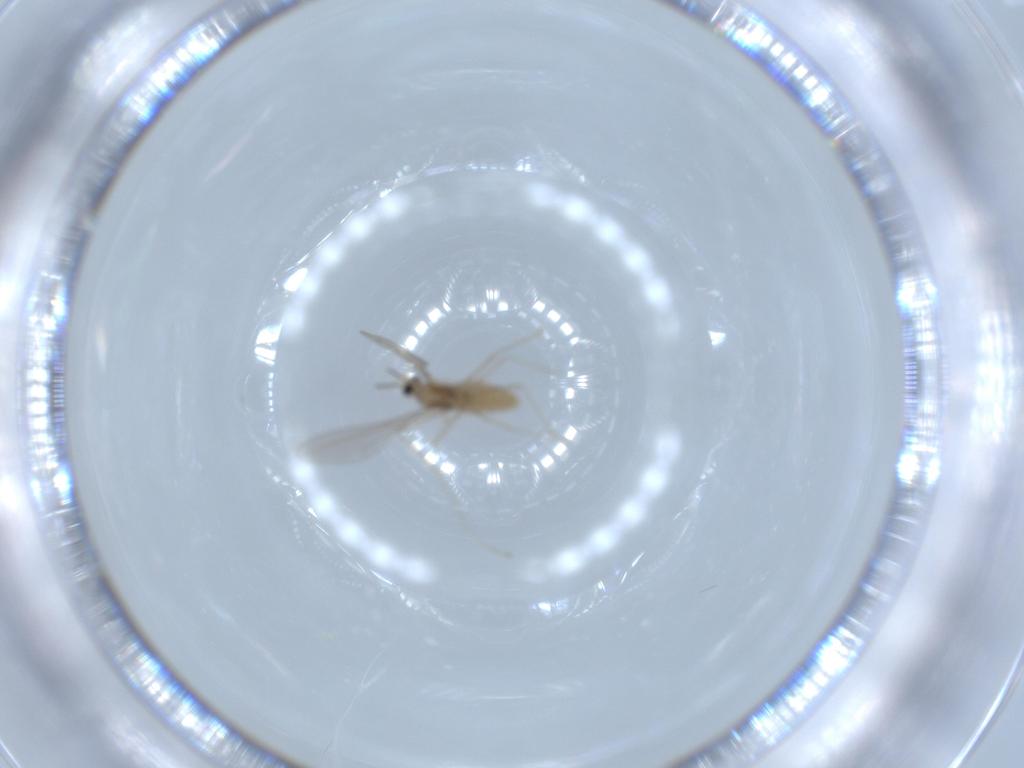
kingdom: Animalia
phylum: Arthropoda
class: Insecta
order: Diptera
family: Cecidomyiidae
